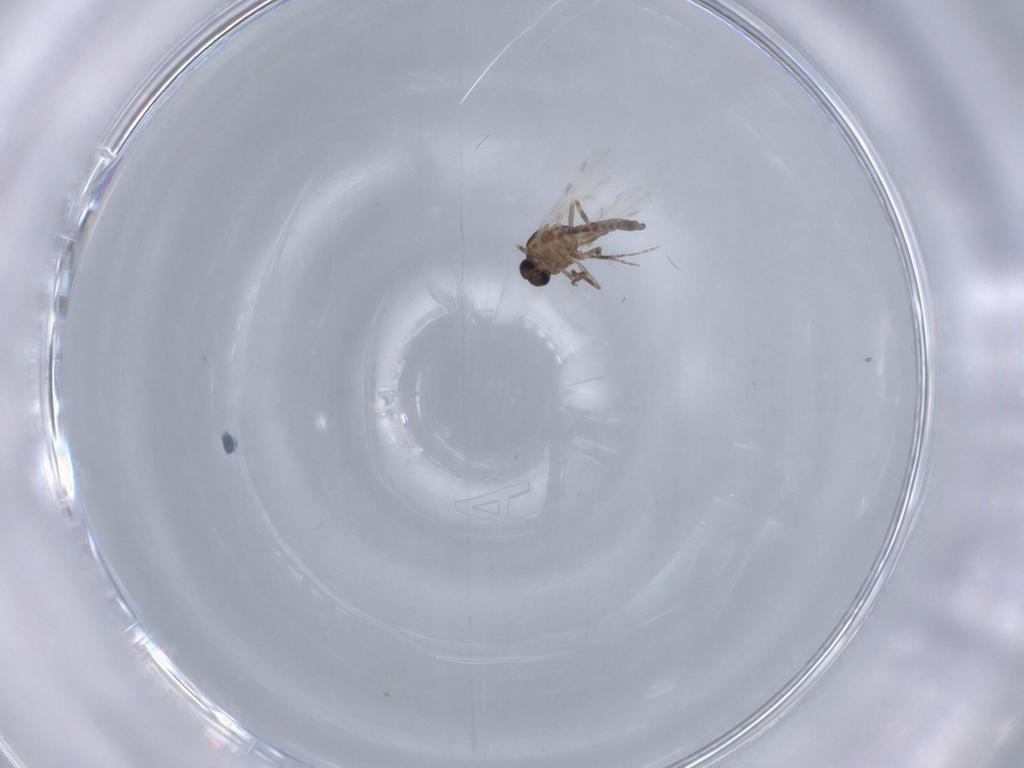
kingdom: Animalia
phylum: Arthropoda
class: Insecta
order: Diptera
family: Ceratopogonidae
